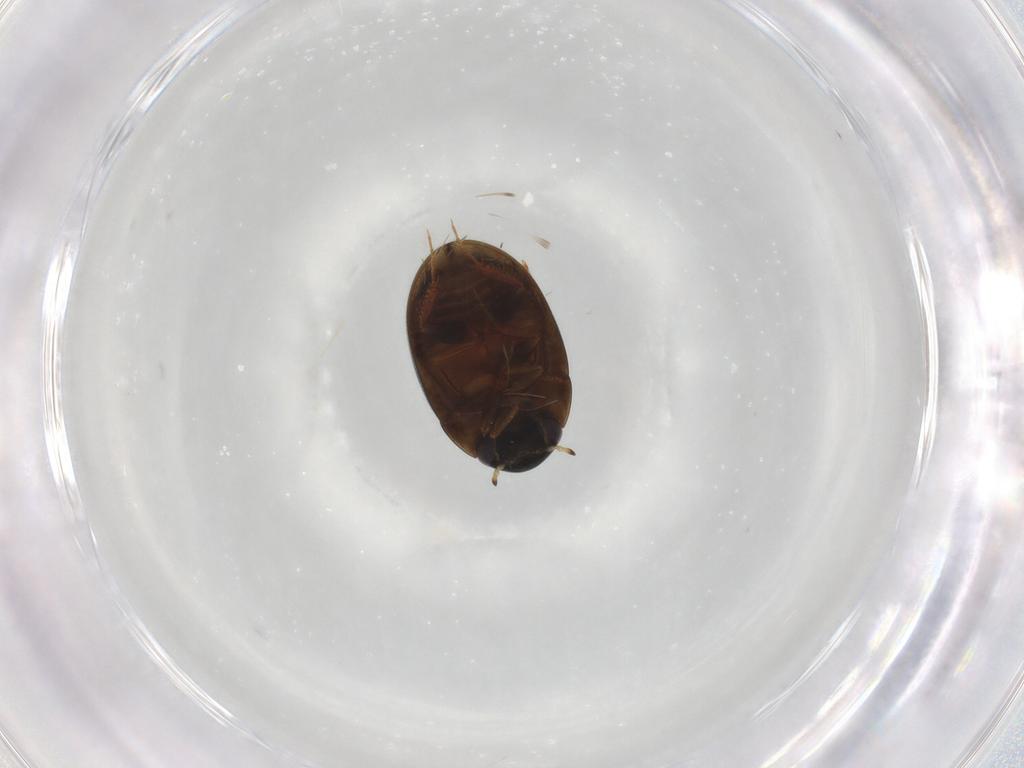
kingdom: Animalia
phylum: Arthropoda
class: Insecta
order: Coleoptera
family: Hydrophilidae
